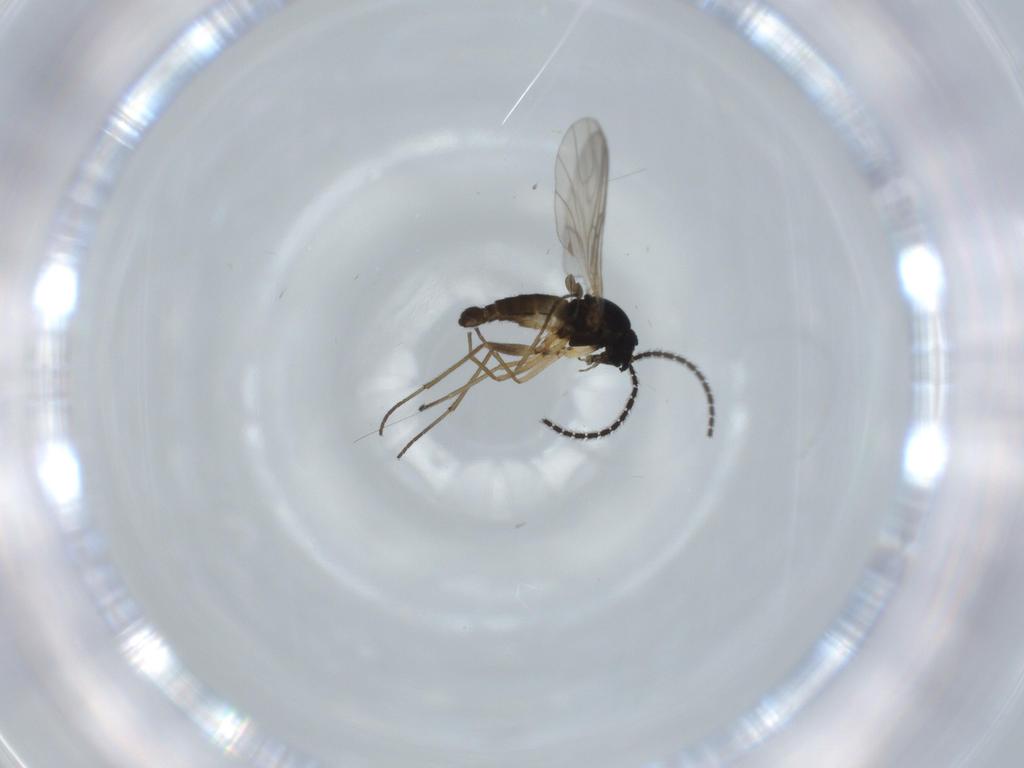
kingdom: Animalia
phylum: Arthropoda
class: Insecta
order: Diptera
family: Sciaridae
